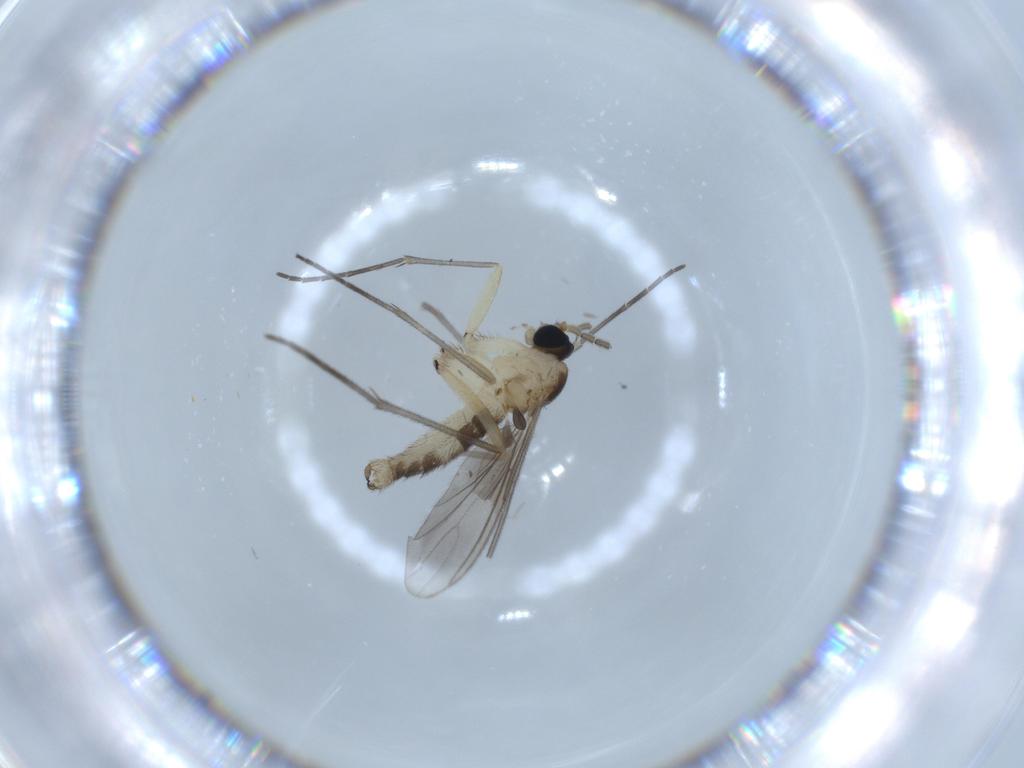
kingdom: Animalia
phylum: Arthropoda
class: Insecta
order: Diptera
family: Sciaridae
